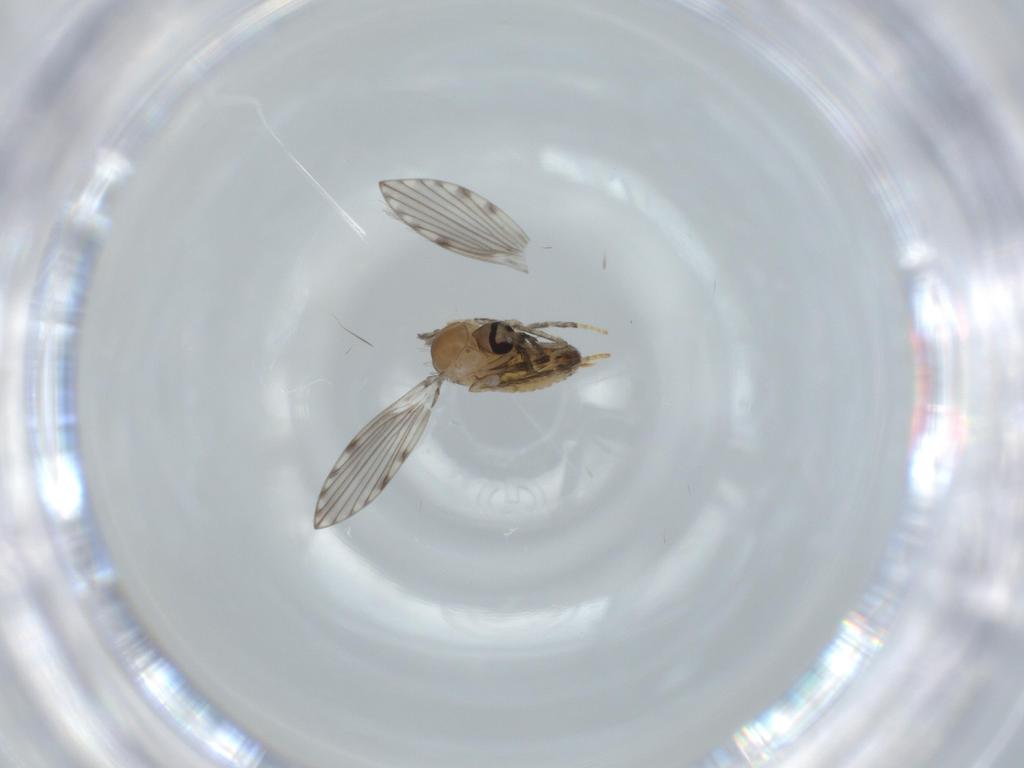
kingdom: Animalia
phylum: Arthropoda
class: Insecta
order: Diptera
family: Psychodidae
